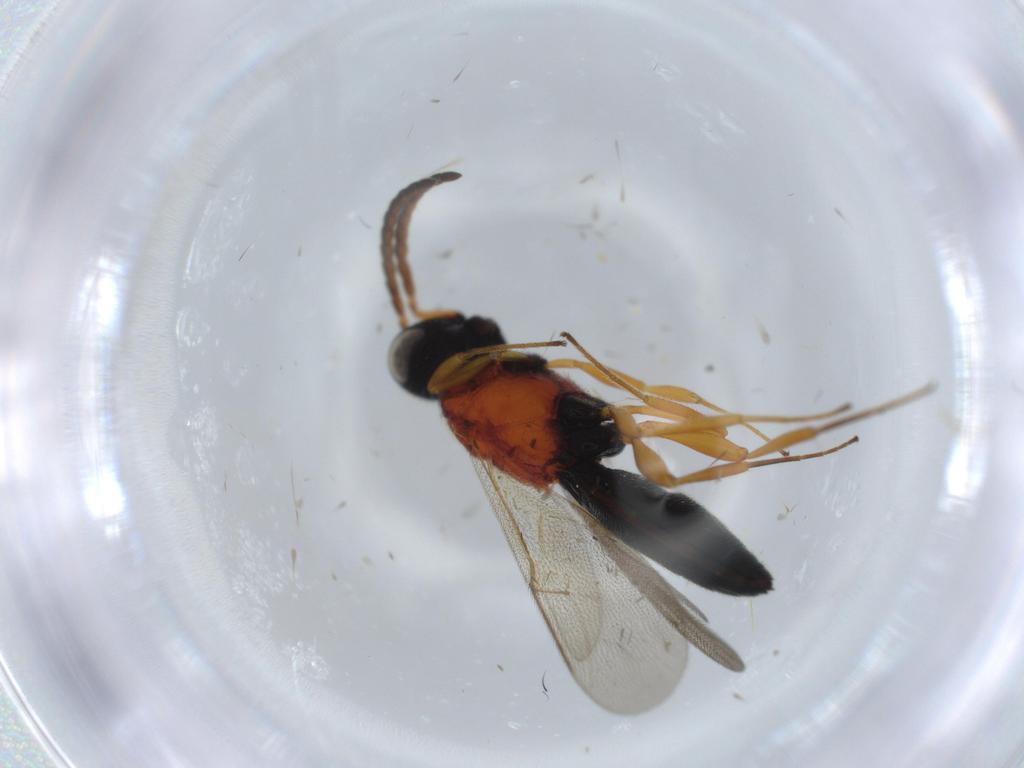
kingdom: Animalia
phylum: Arthropoda
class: Insecta
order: Hymenoptera
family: Scelionidae
